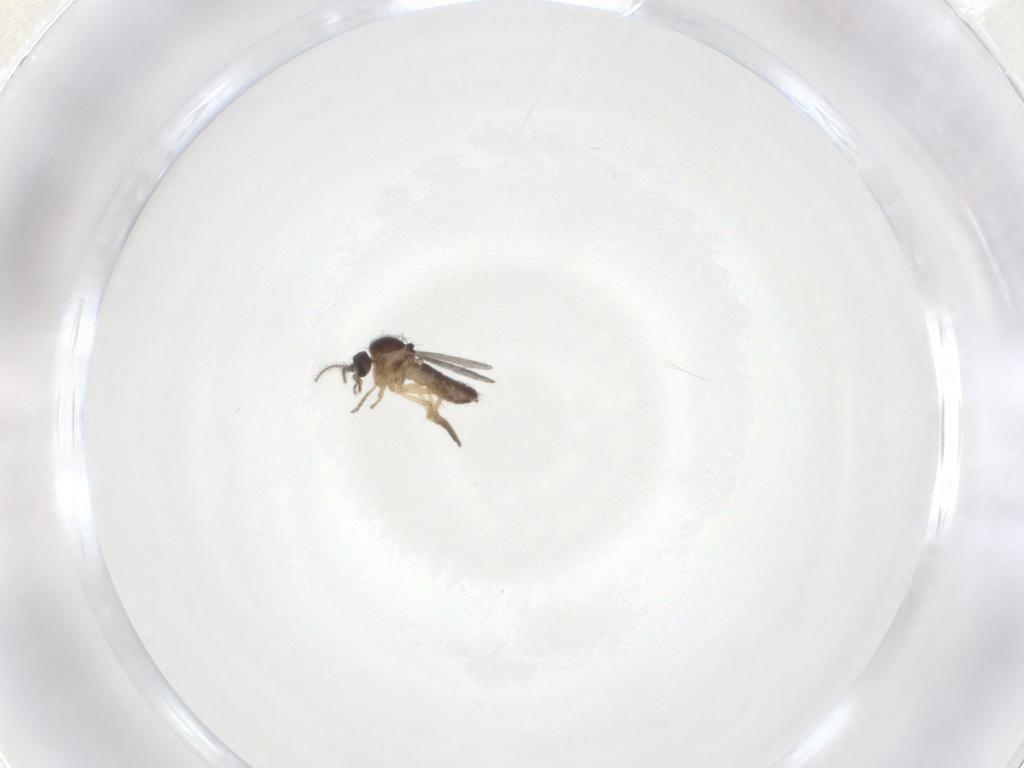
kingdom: Animalia
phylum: Arthropoda
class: Insecta
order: Diptera
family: Ceratopogonidae
